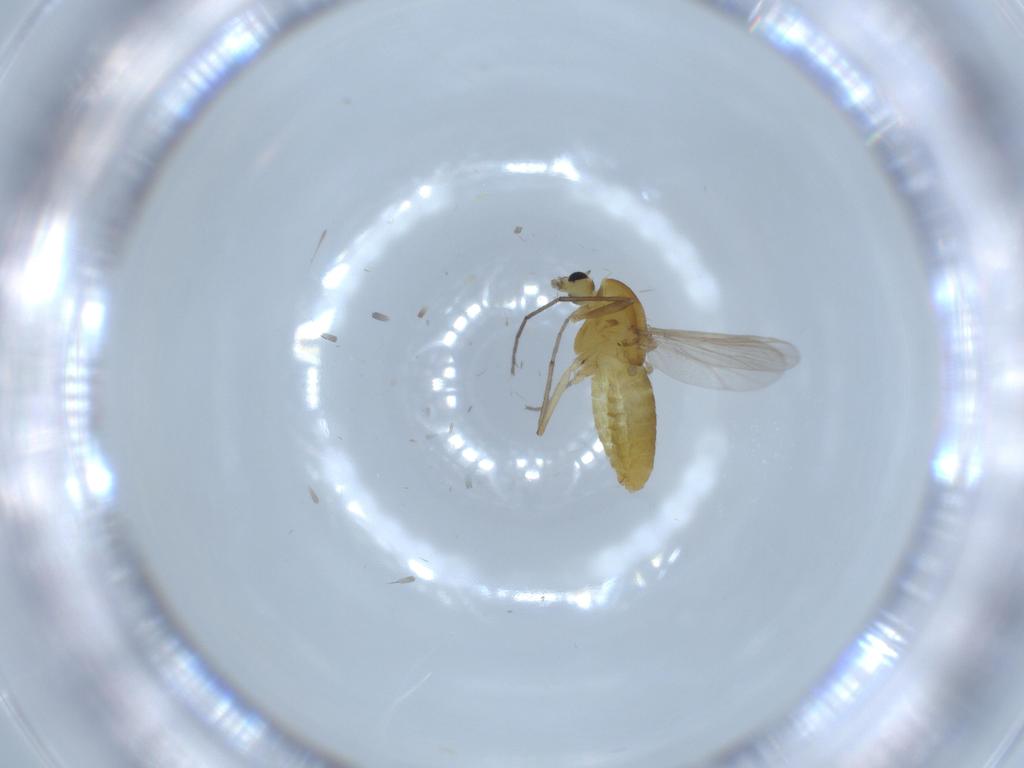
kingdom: Animalia
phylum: Arthropoda
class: Insecta
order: Diptera
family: Chironomidae
